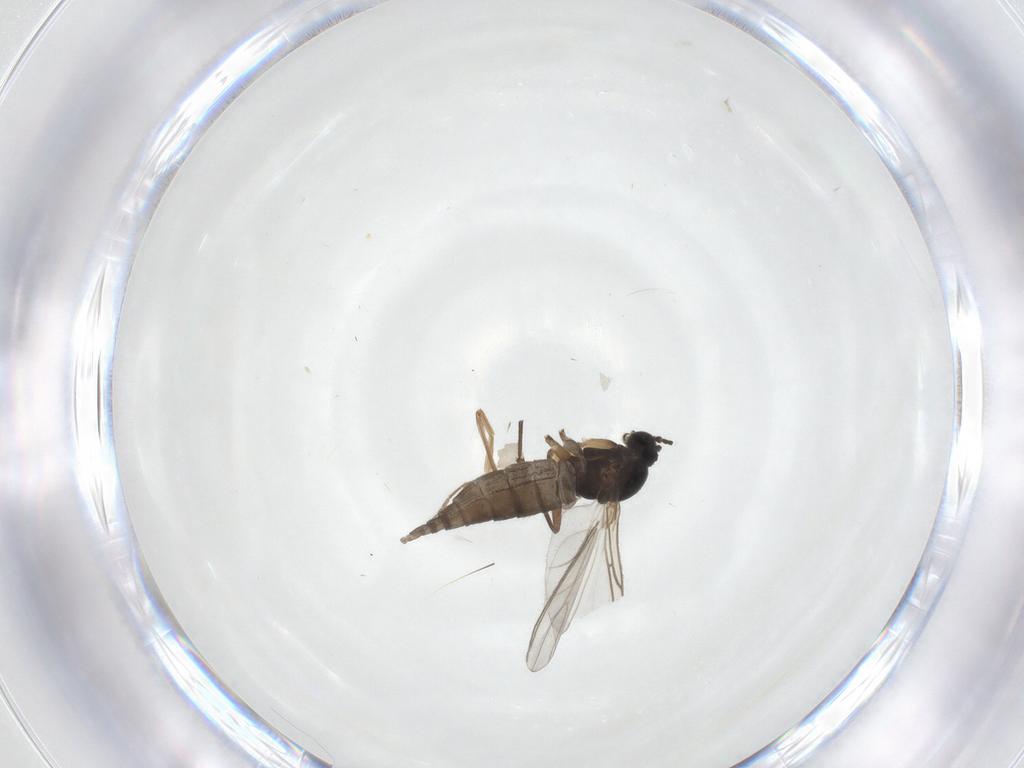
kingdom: Animalia
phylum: Arthropoda
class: Insecta
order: Diptera
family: Sciaridae
